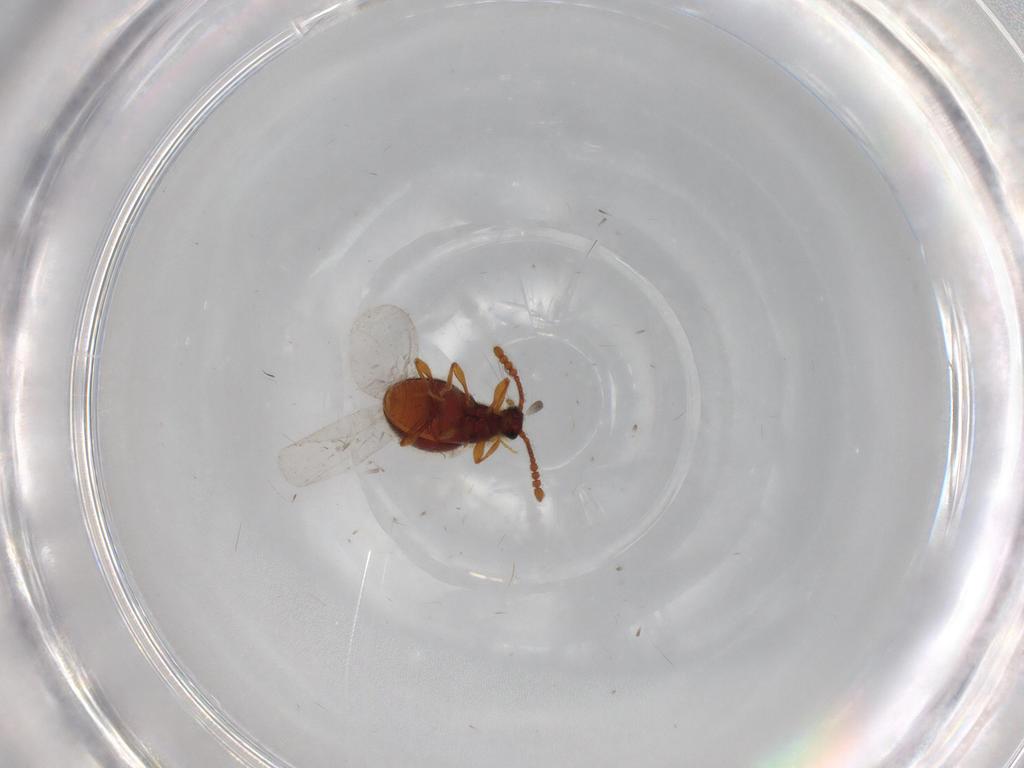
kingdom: Animalia
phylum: Arthropoda
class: Insecta
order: Coleoptera
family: Staphylinidae
